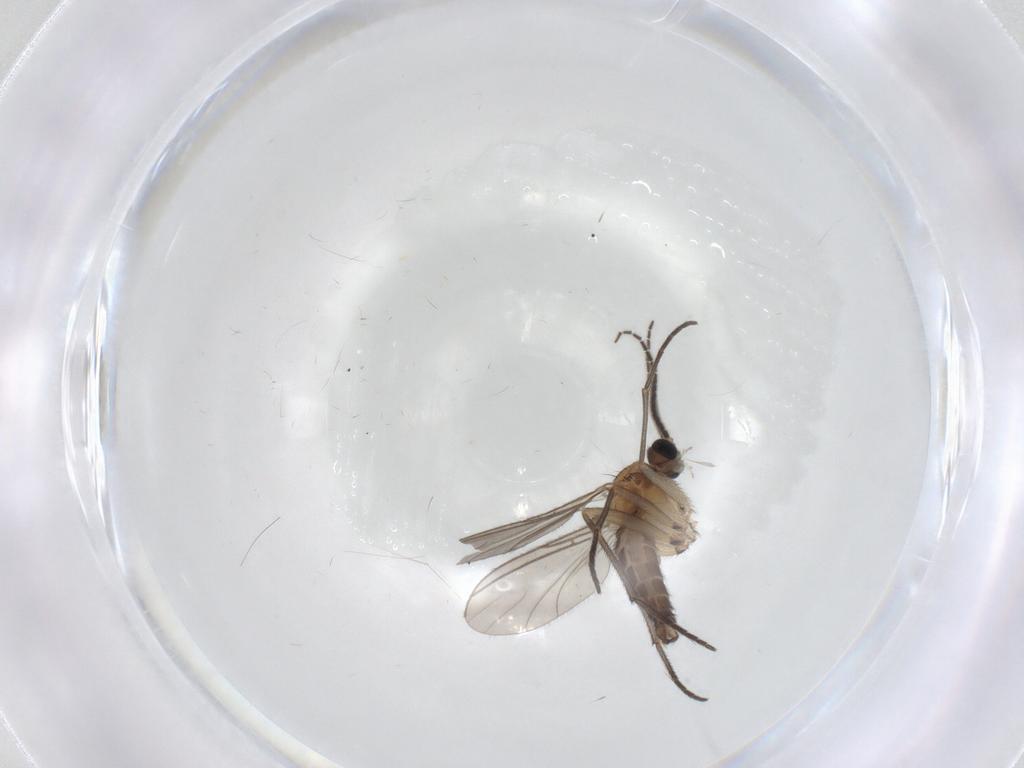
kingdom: Animalia
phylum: Arthropoda
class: Insecta
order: Diptera
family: Sciaridae
